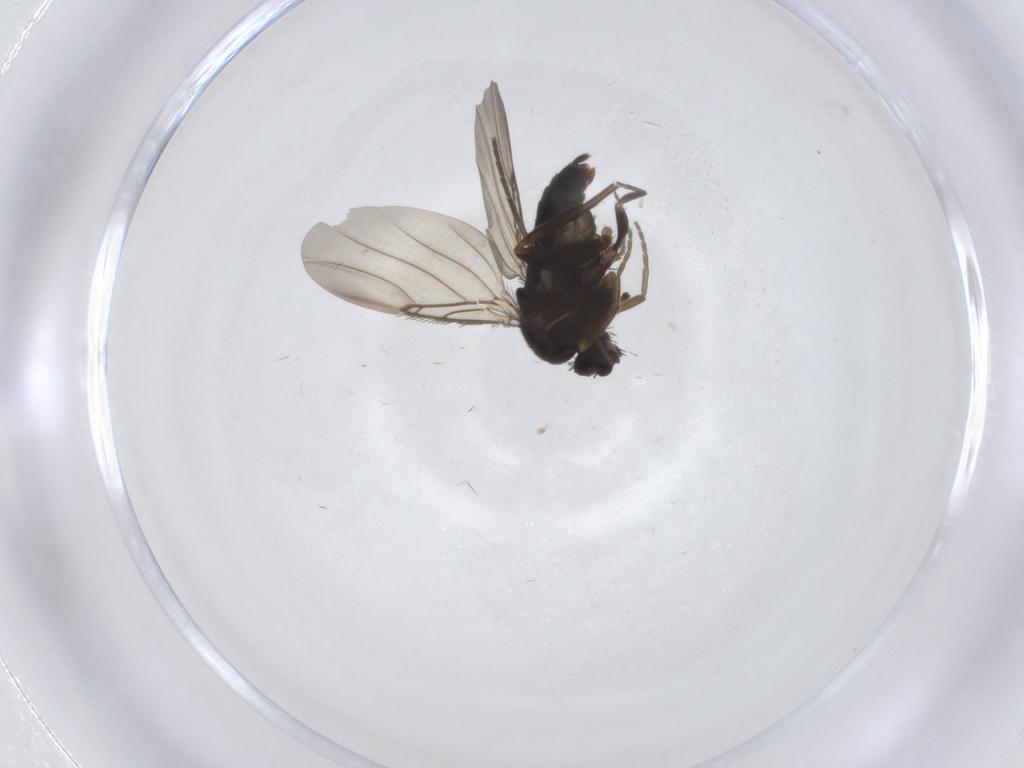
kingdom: Animalia
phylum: Arthropoda
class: Insecta
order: Diptera
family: Phoridae
